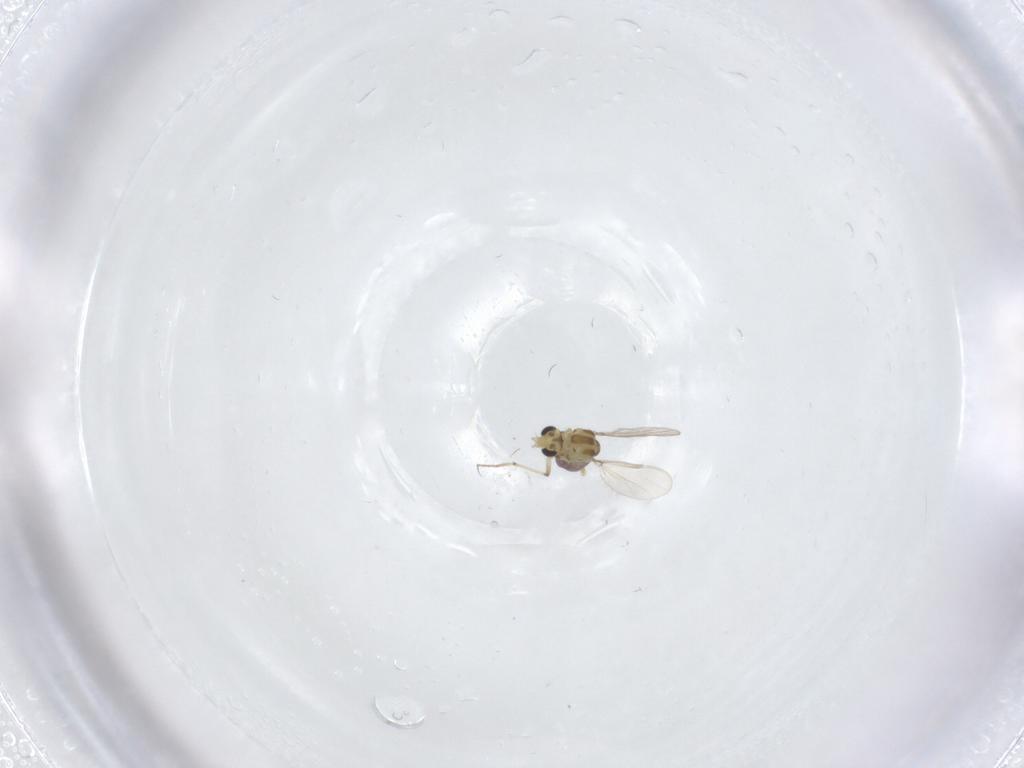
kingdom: Animalia
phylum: Arthropoda
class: Insecta
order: Diptera
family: Chironomidae
